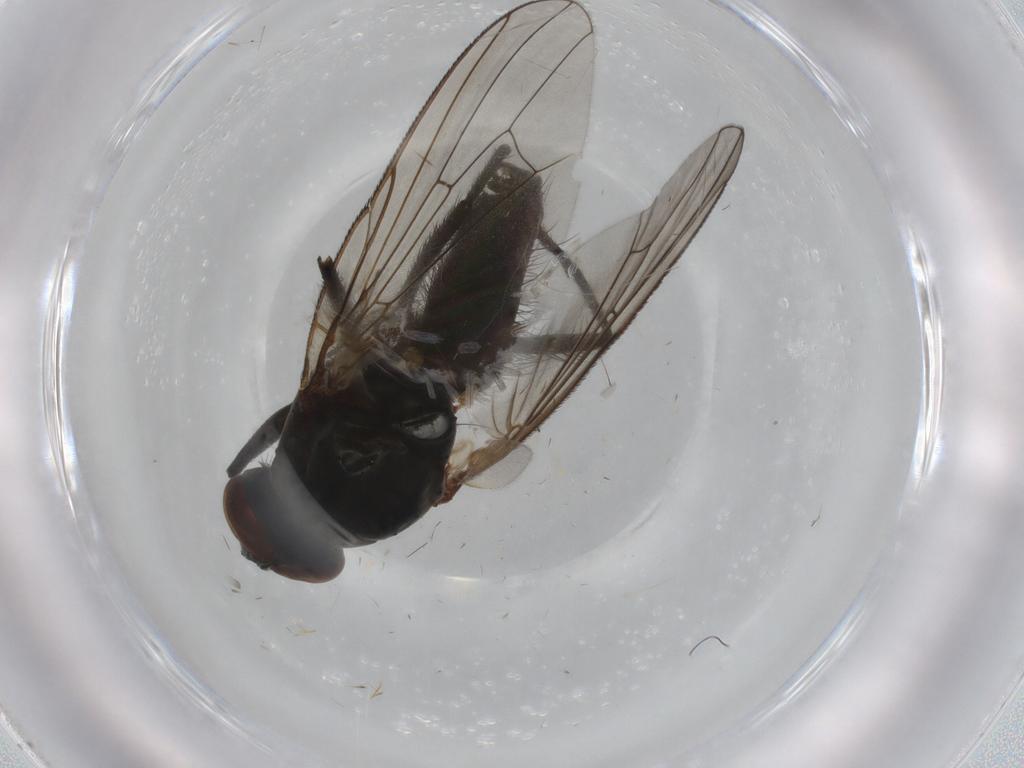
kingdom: Animalia
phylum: Arthropoda
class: Insecta
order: Diptera
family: Anthomyiidae
